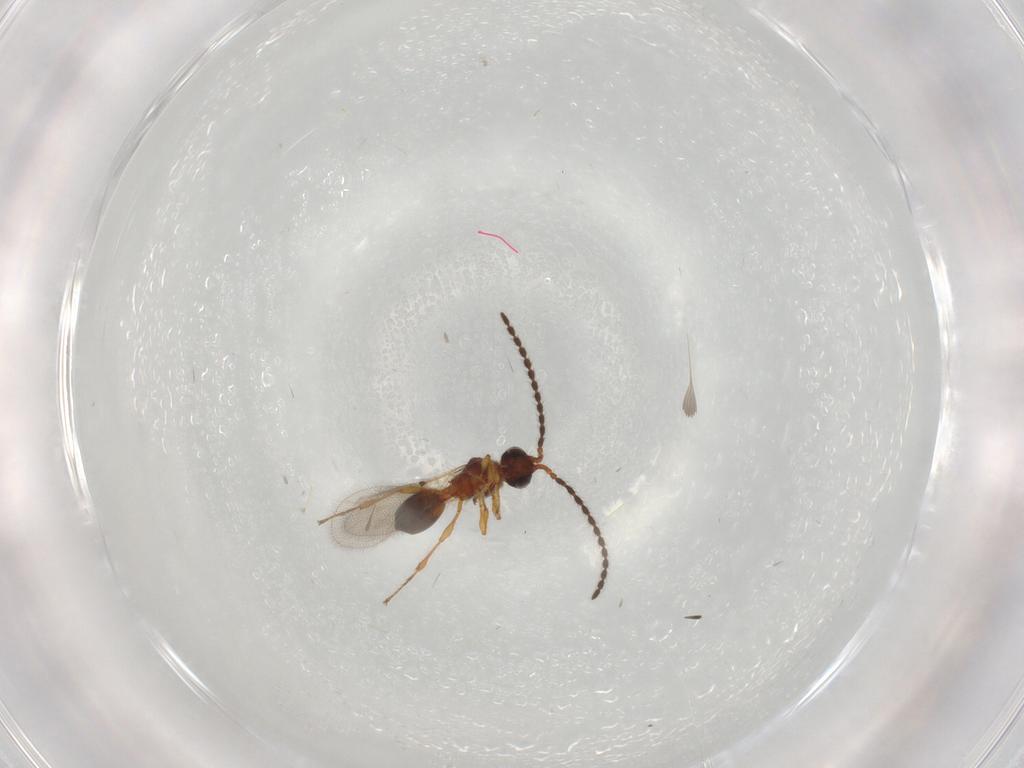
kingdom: Animalia
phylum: Arthropoda
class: Insecta
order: Hymenoptera
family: Diapriidae
